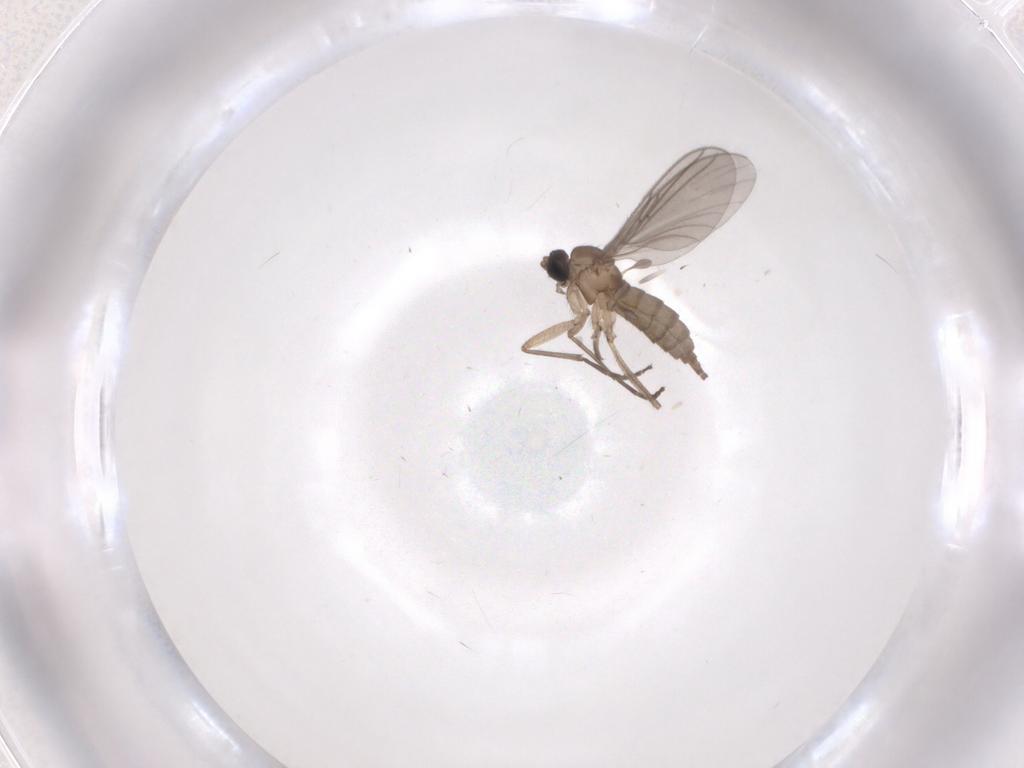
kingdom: Animalia
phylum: Arthropoda
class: Insecta
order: Diptera
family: Sciaridae
